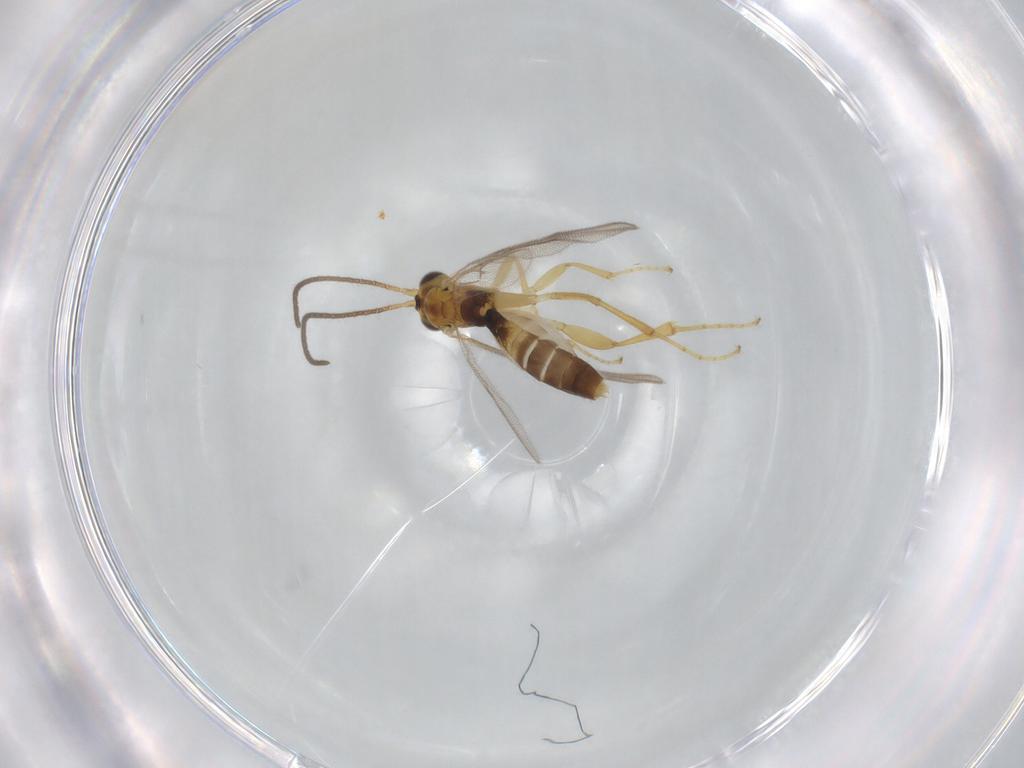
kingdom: Animalia
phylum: Arthropoda
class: Insecta
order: Hymenoptera
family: Ichneumonidae
